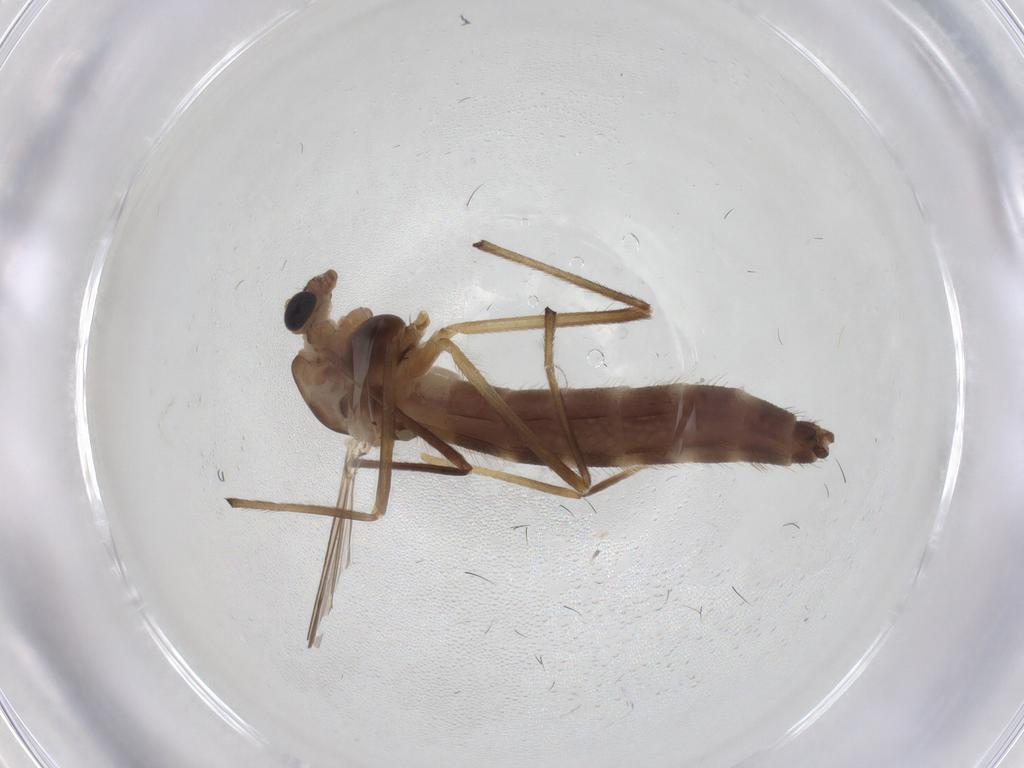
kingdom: Animalia
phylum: Arthropoda
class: Insecta
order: Diptera
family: Chironomidae
